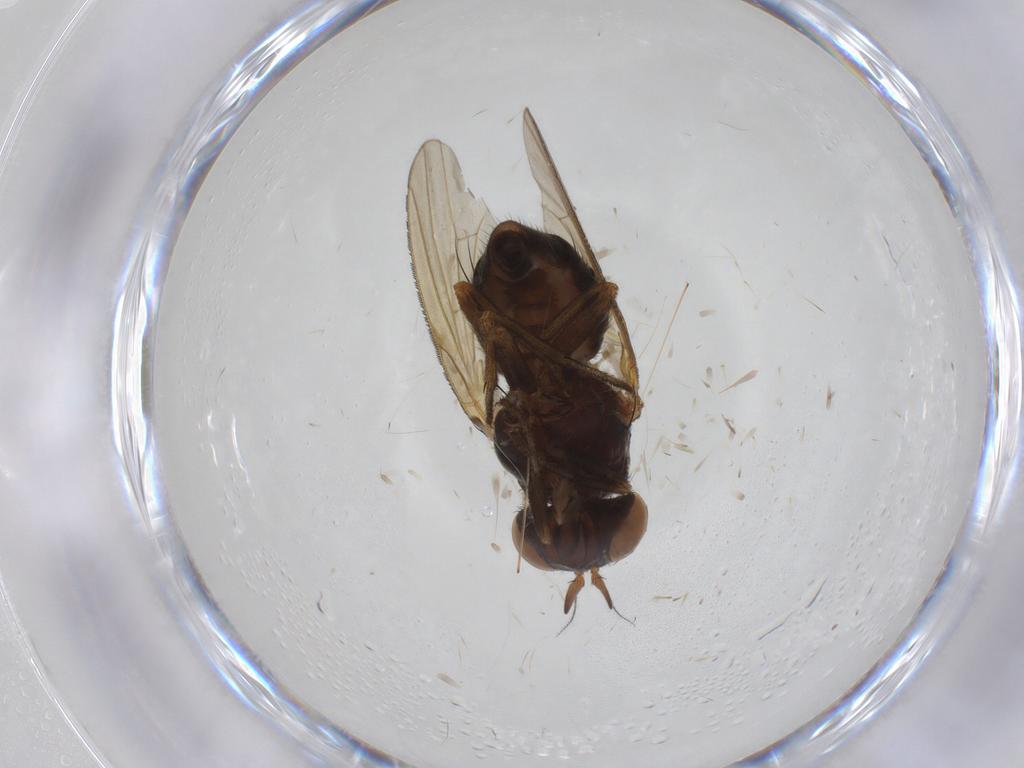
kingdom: Animalia
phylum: Arthropoda
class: Insecta
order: Diptera
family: Lauxaniidae
